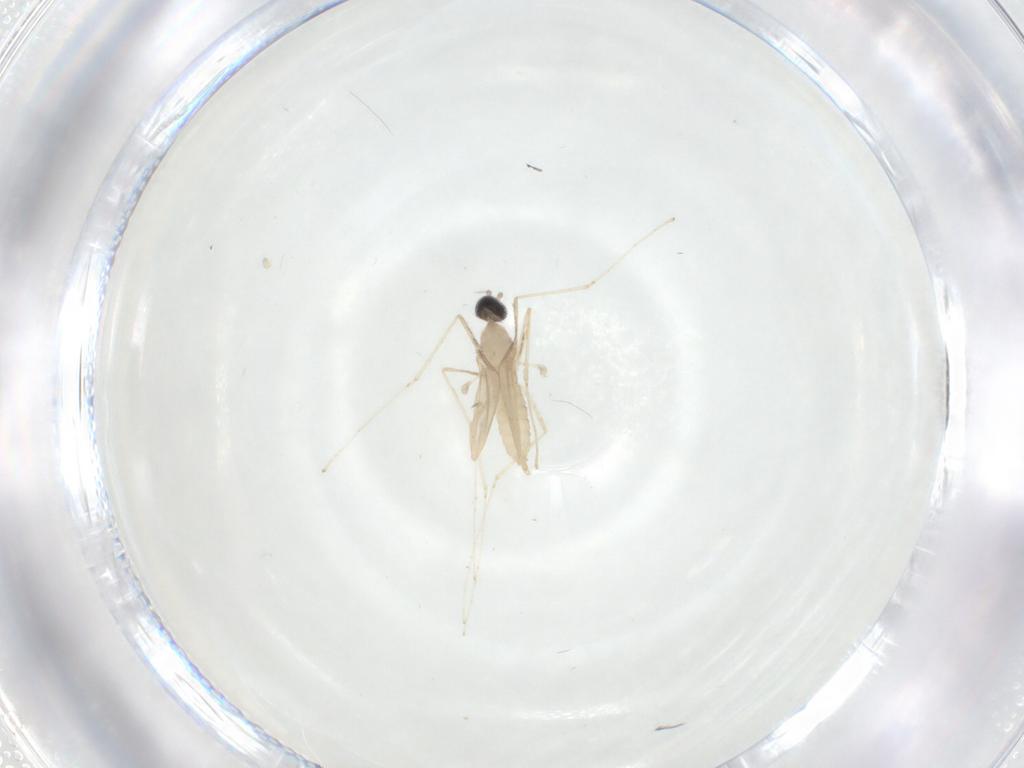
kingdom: Animalia
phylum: Arthropoda
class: Insecta
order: Diptera
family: Cecidomyiidae
